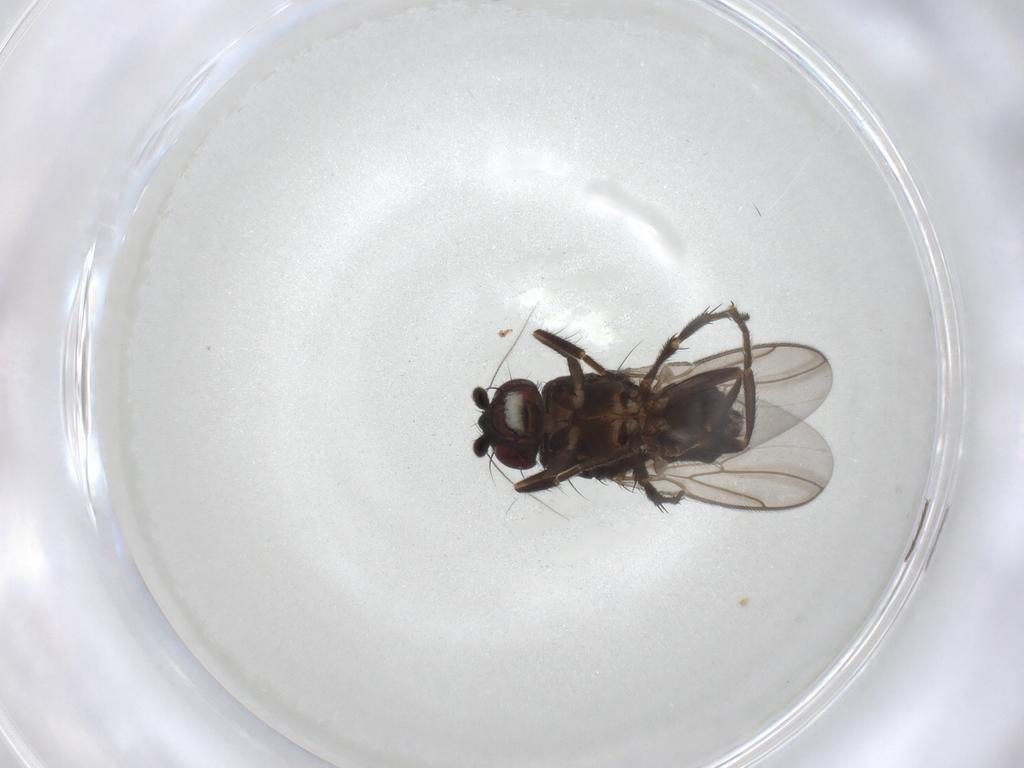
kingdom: Animalia
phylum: Arthropoda
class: Insecta
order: Diptera
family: Sphaeroceridae
